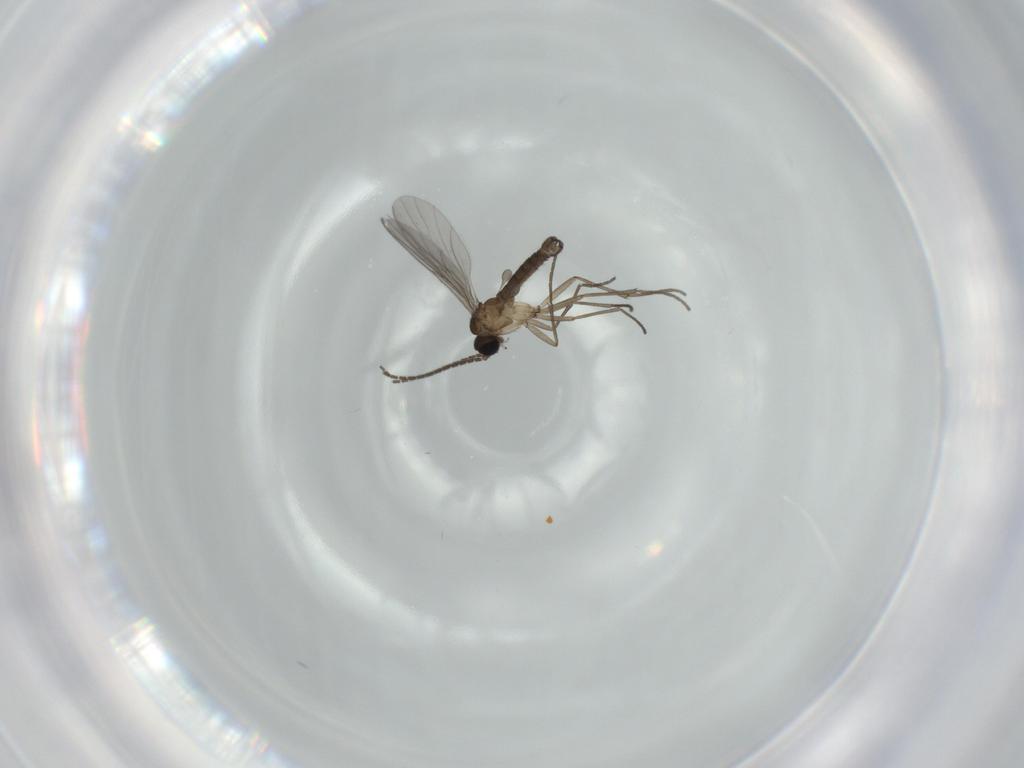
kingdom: Animalia
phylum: Arthropoda
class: Insecta
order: Diptera
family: Sciaridae
